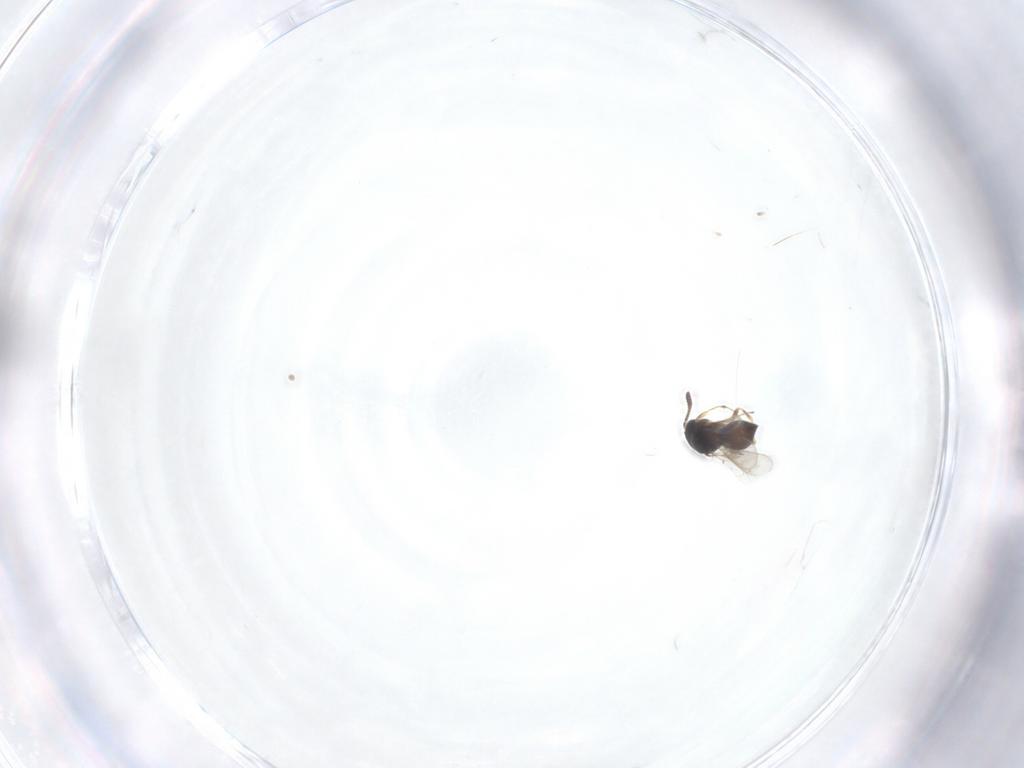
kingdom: Animalia
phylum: Arthropoda
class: Insecta
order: Hymenoptera
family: Scelionidae
